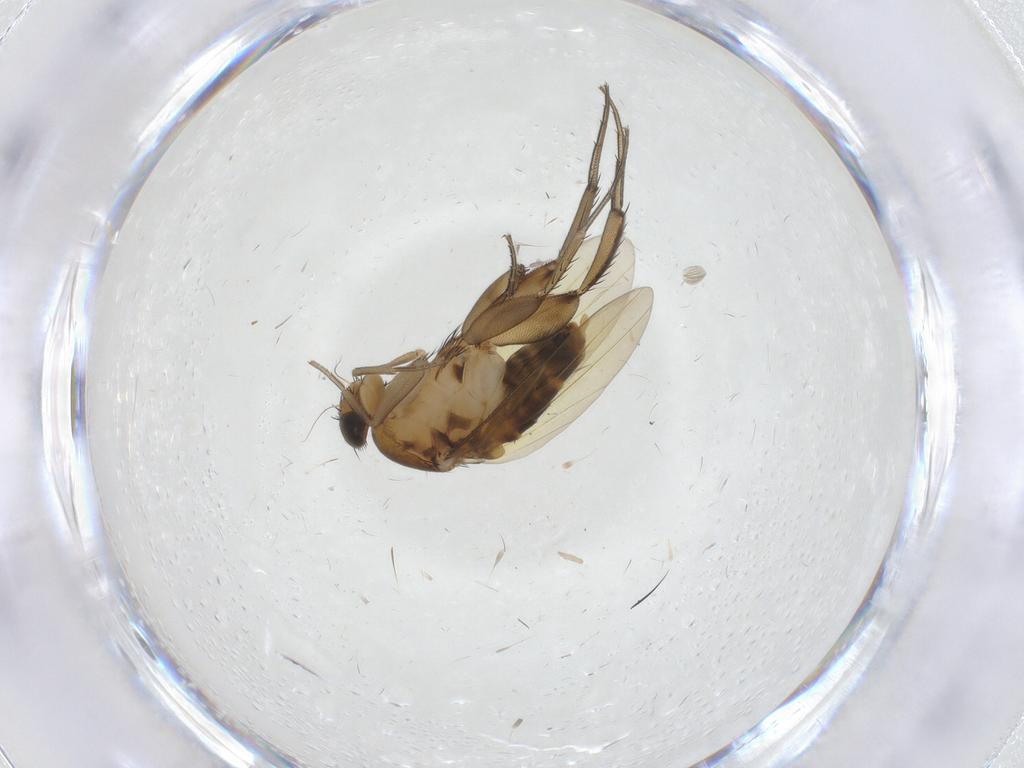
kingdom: Animalia
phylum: Arthropoda
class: Insecta
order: Diptera
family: Phoridae
